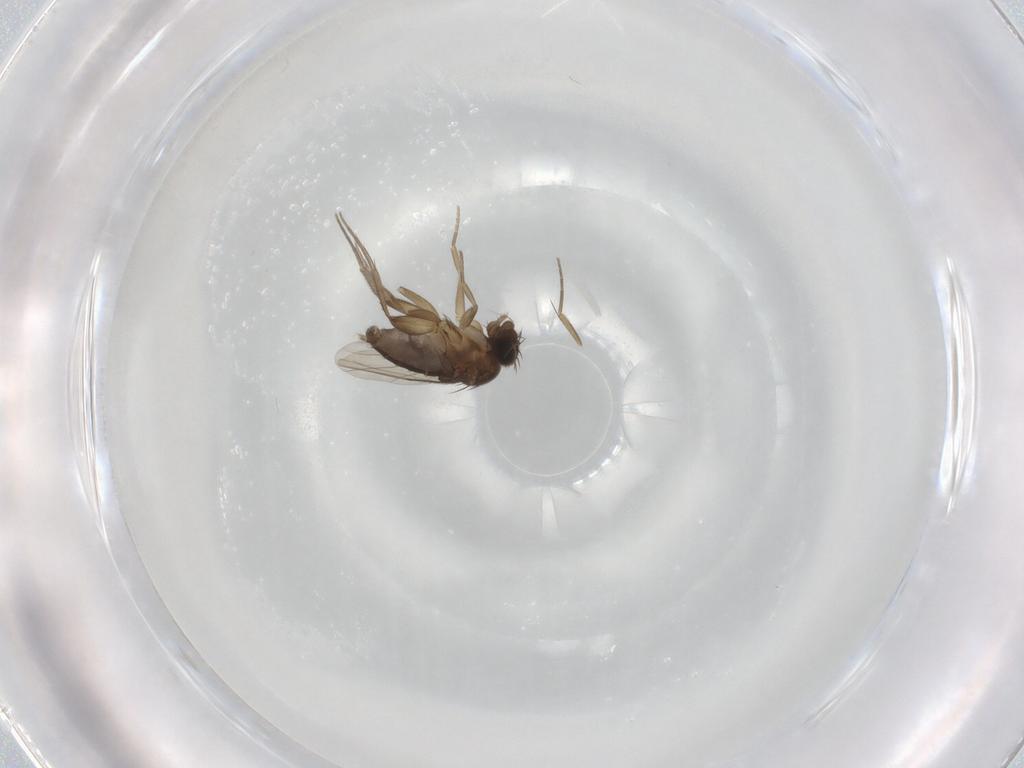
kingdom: Animalia
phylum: Arthropoda
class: Insecta
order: Diptera
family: Phoridae
